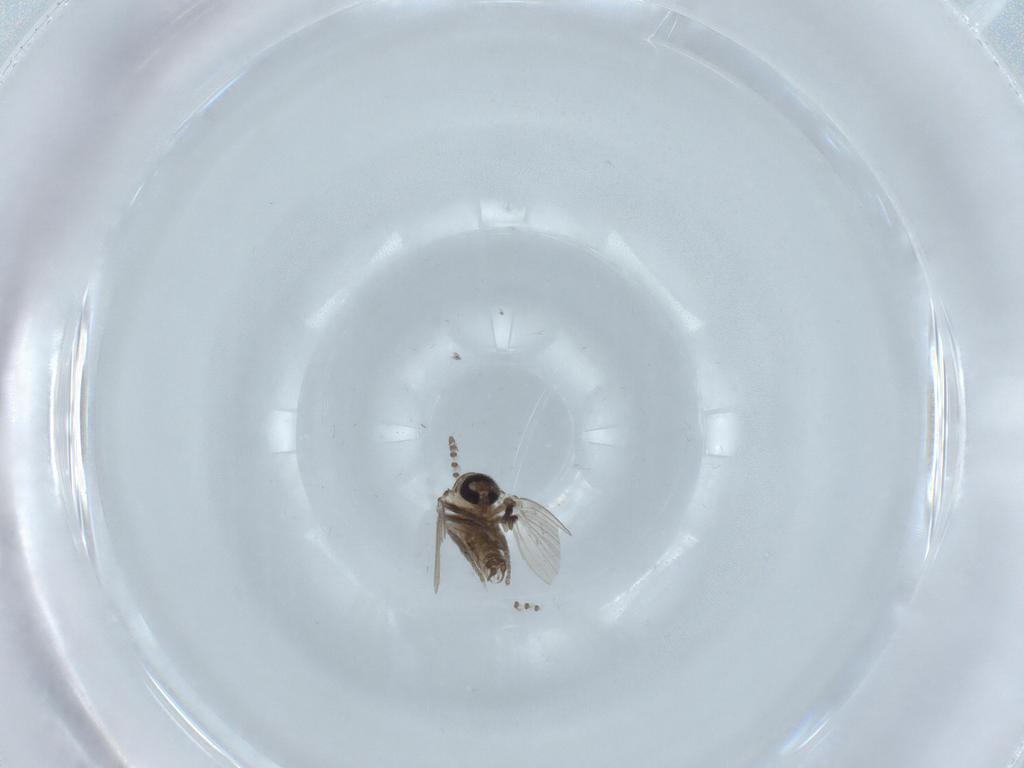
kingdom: Animalia
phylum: Arthropoda
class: Insecta
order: Diptera
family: Psychodidae
